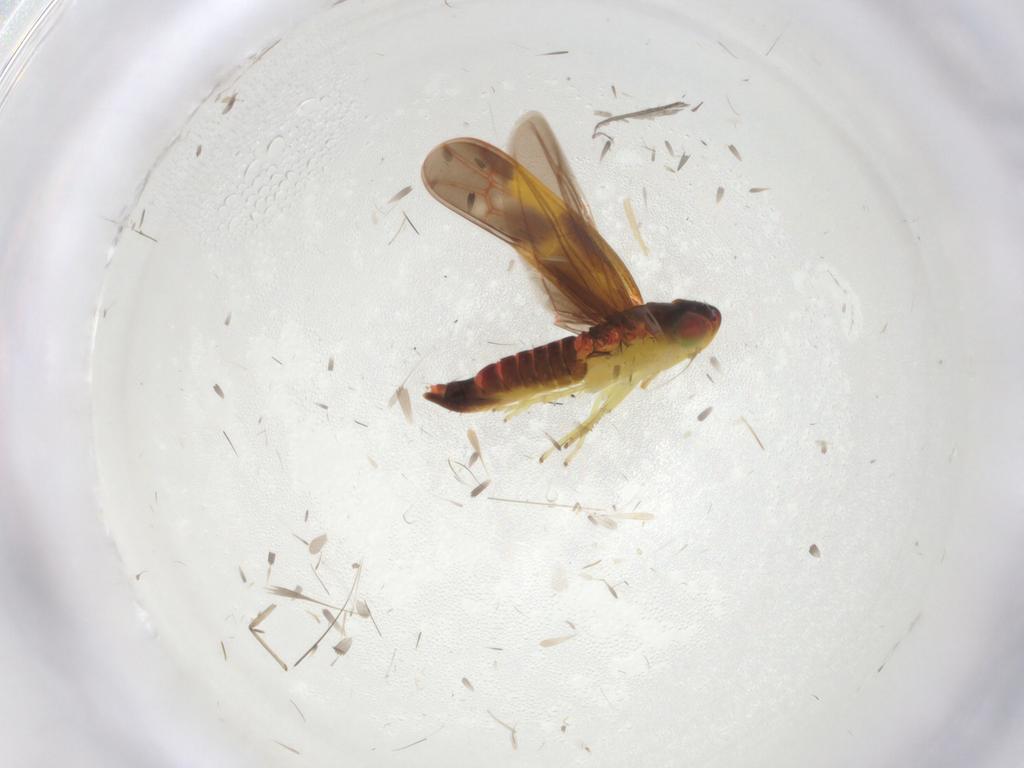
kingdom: Animalia
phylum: Arthropoda
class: Insecta
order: Hemiptera
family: Cicadellidae
